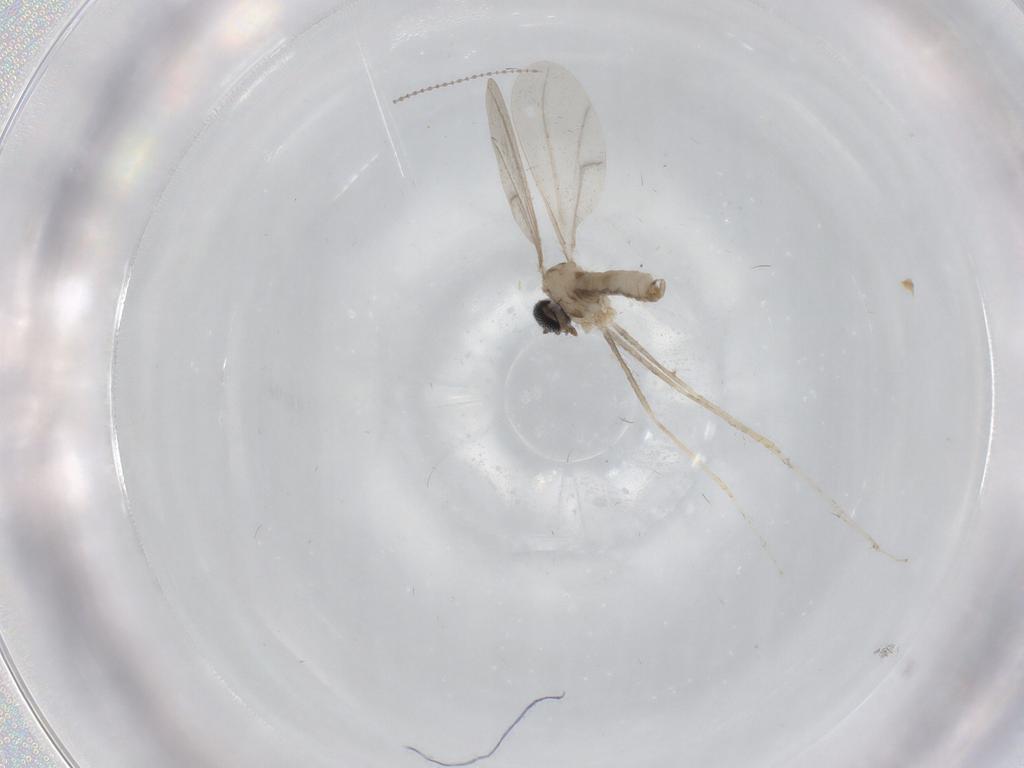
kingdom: Animalia
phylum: Arthropoda
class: Insecta
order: Diptera
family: Cecidomyiidae
